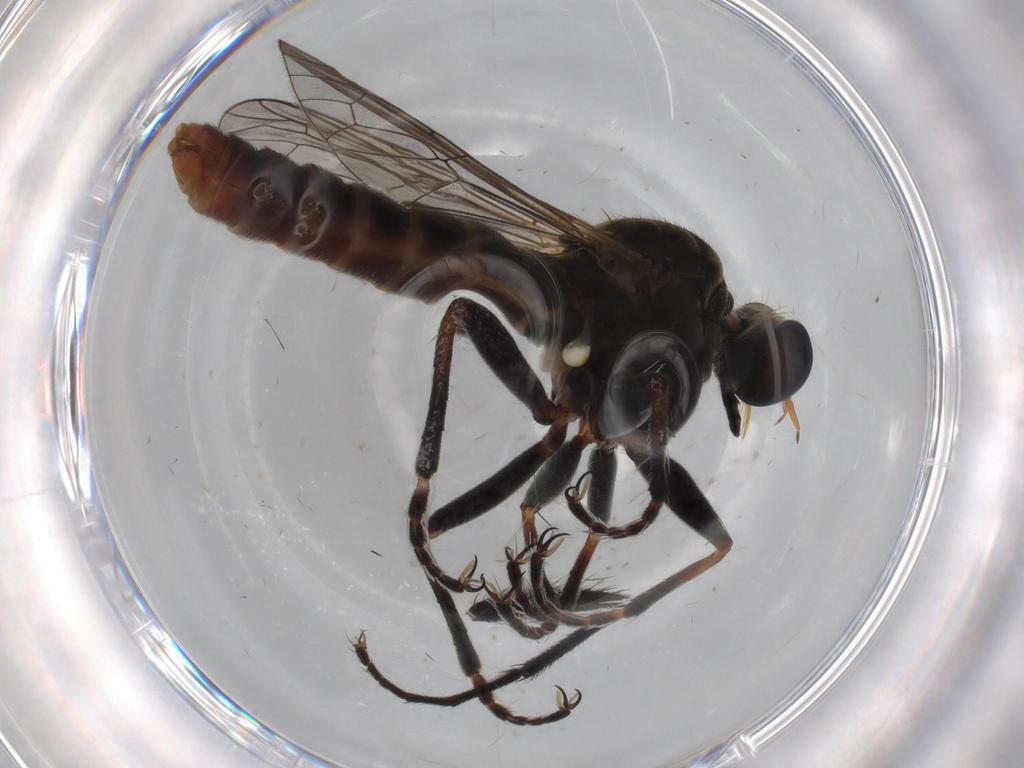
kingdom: Animalia
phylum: Arthropoda
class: Insecta
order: Diptera
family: Asilidae
